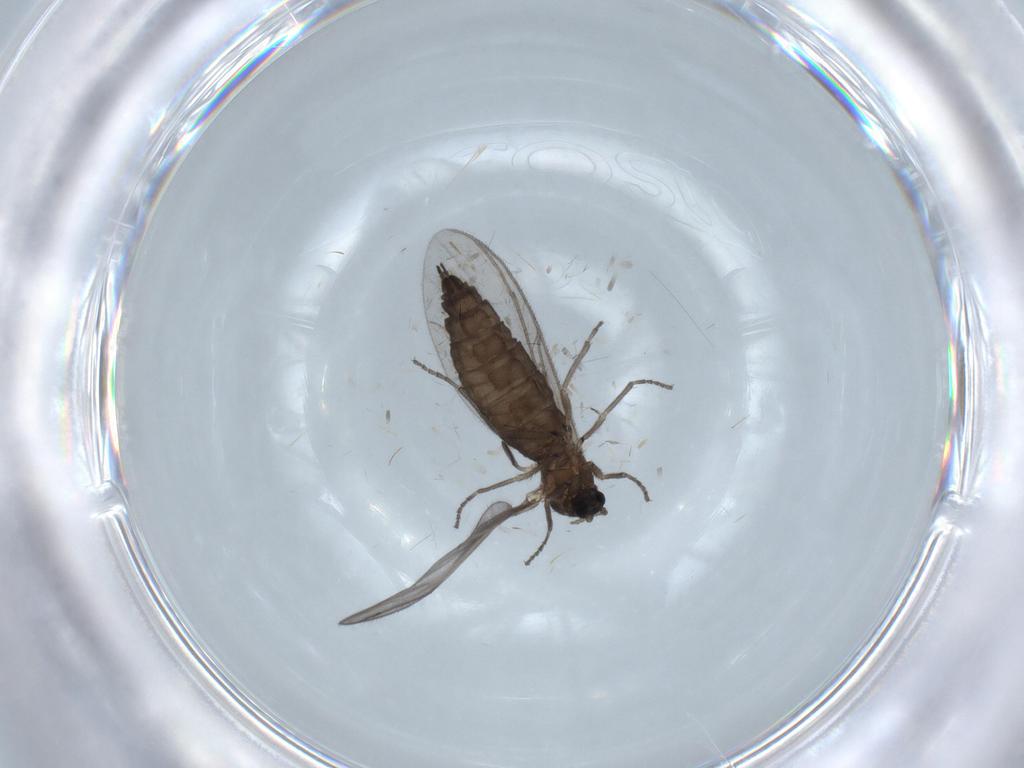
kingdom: Animalia
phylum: Arthropoda
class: Insecta
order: Diptera
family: Sciaridae
